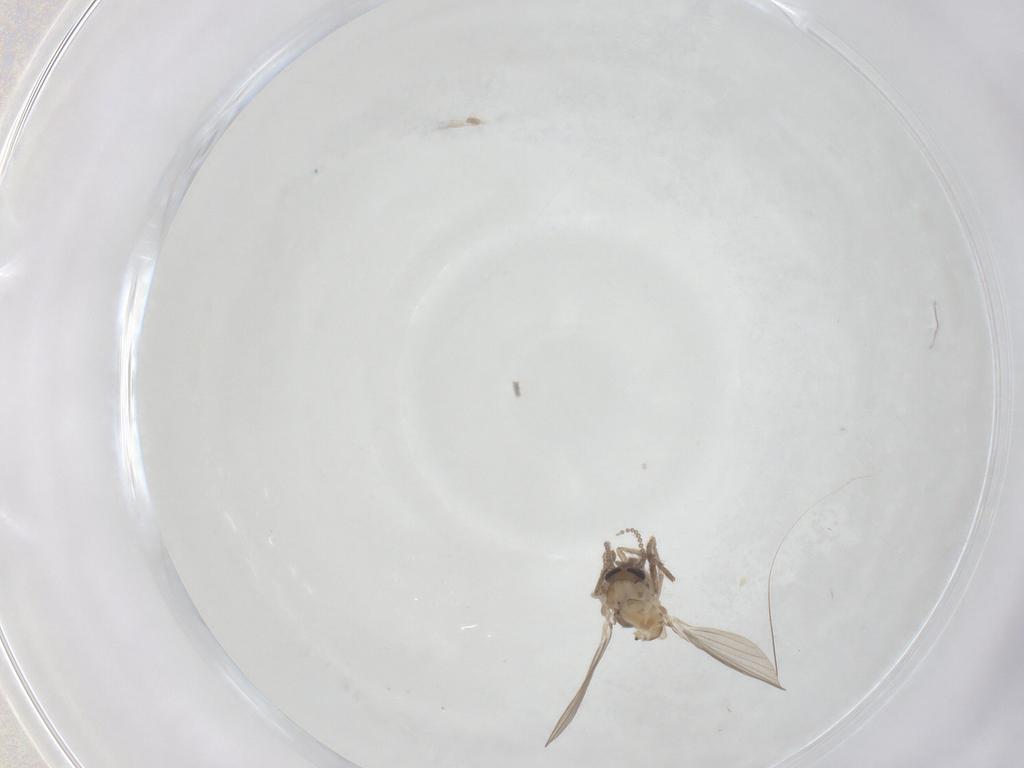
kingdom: Animalia
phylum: Arthropoda
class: Insecta
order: Diptera
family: Psychodidae
